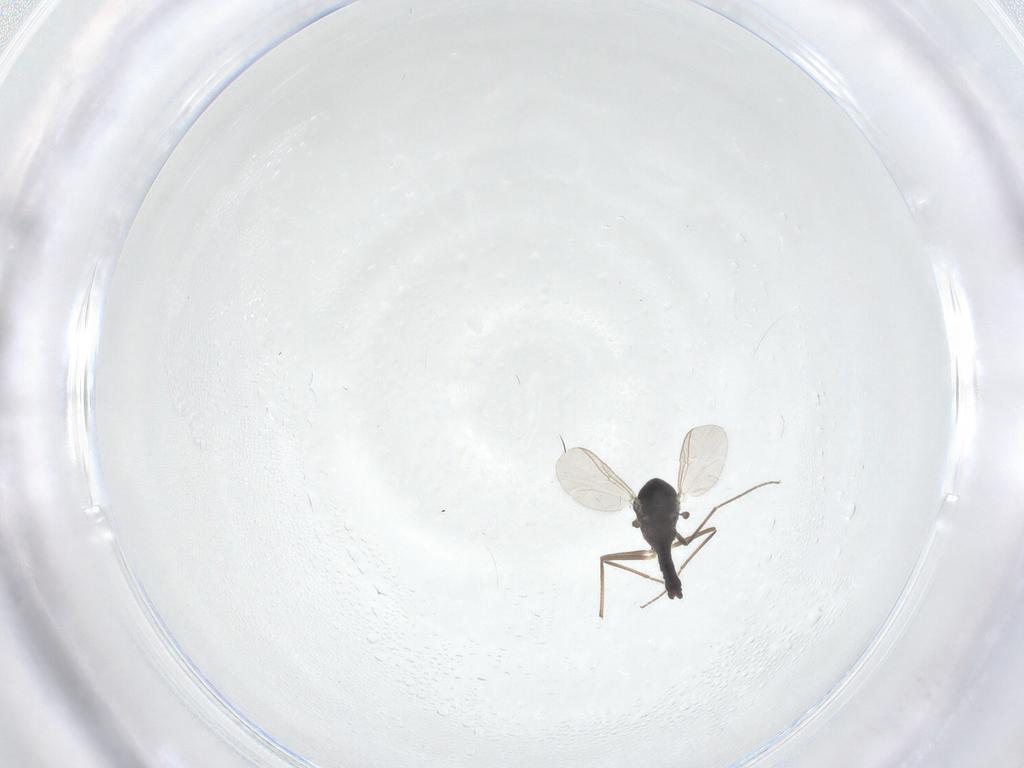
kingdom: Animalia
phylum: Arthropoda
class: Insecta
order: Diptera
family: Chironomidae
